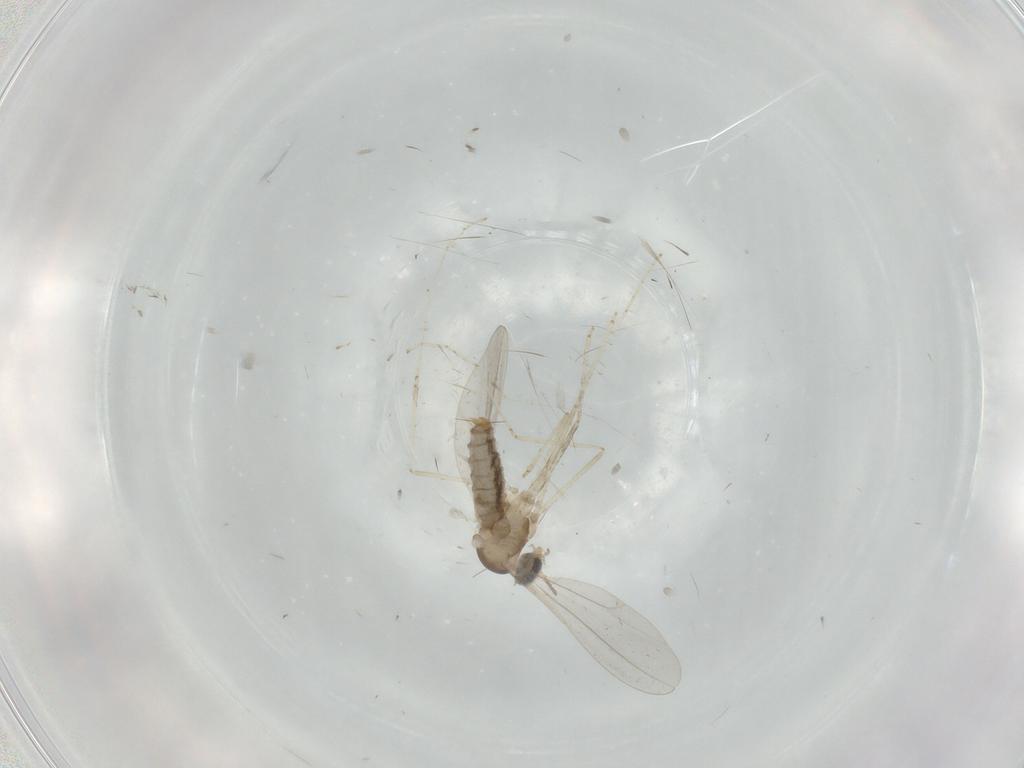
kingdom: Animalia
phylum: Arthropoda
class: Insecta
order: Diptera
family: Cecidomyiidae
